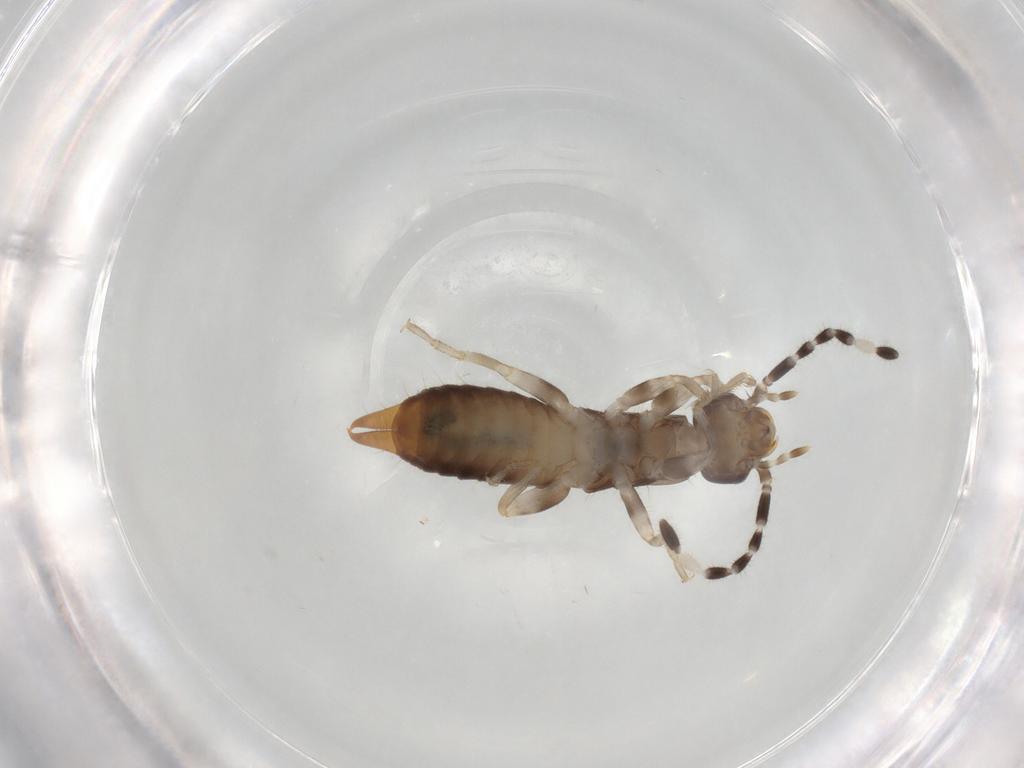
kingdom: Animalia
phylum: Arthropoda
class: Insecta
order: Dermaptera
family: Anisolabididae
